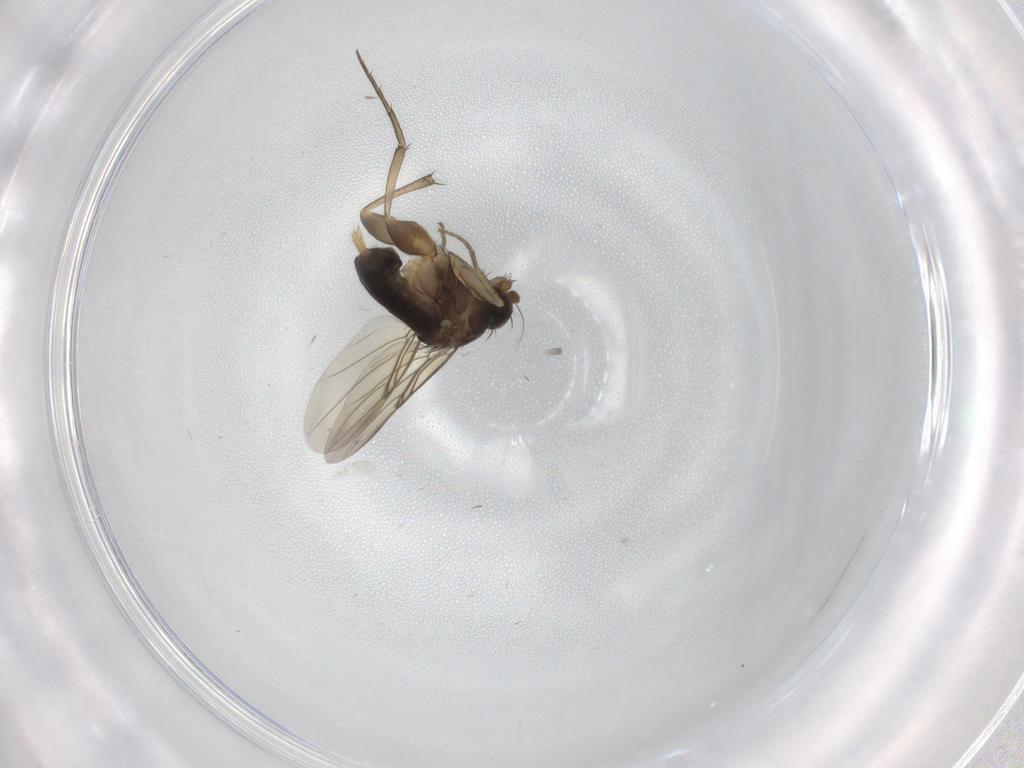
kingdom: Animalia
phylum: Arthropoda
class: Insecta
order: Diptera
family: Phoridae
